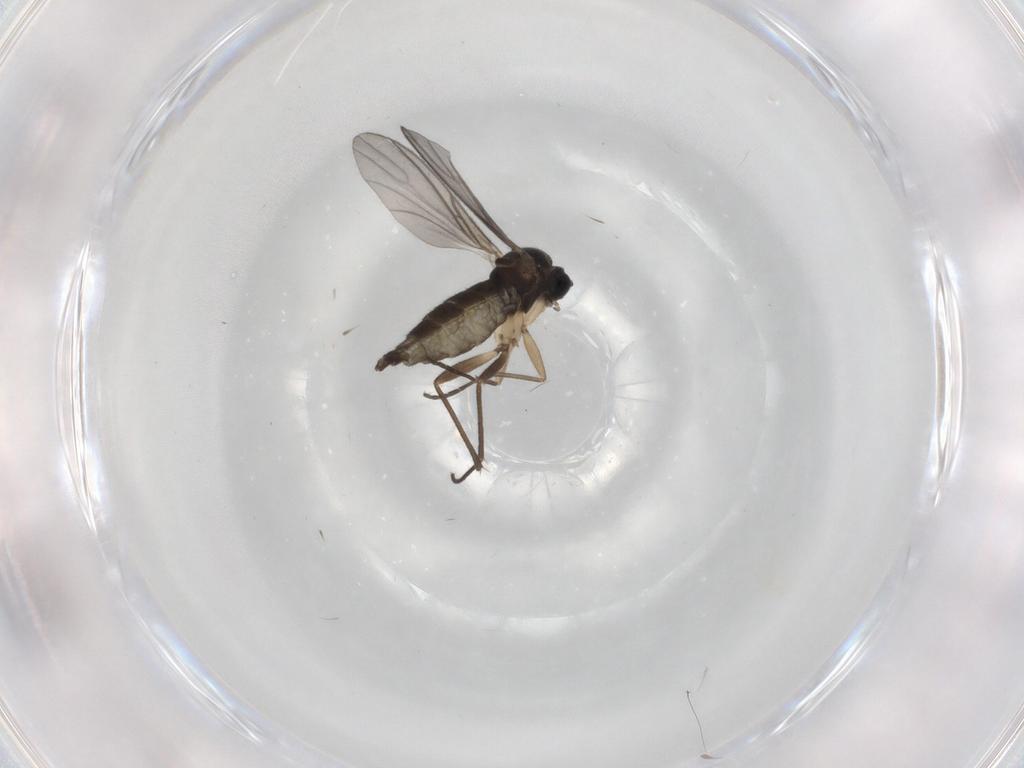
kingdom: Animalia
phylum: Arthropoda
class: Insecta
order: Diptera
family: Sciaridae
